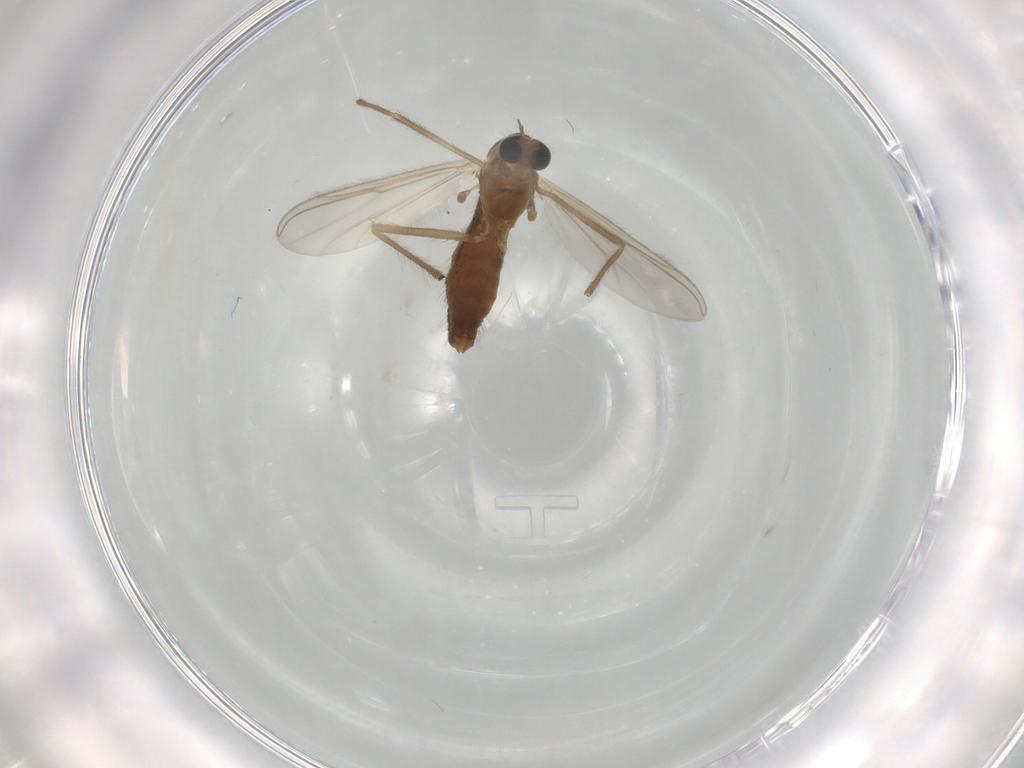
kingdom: Animalia
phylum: Arthropoda
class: Insecta
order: Diptera
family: Chironomidae
